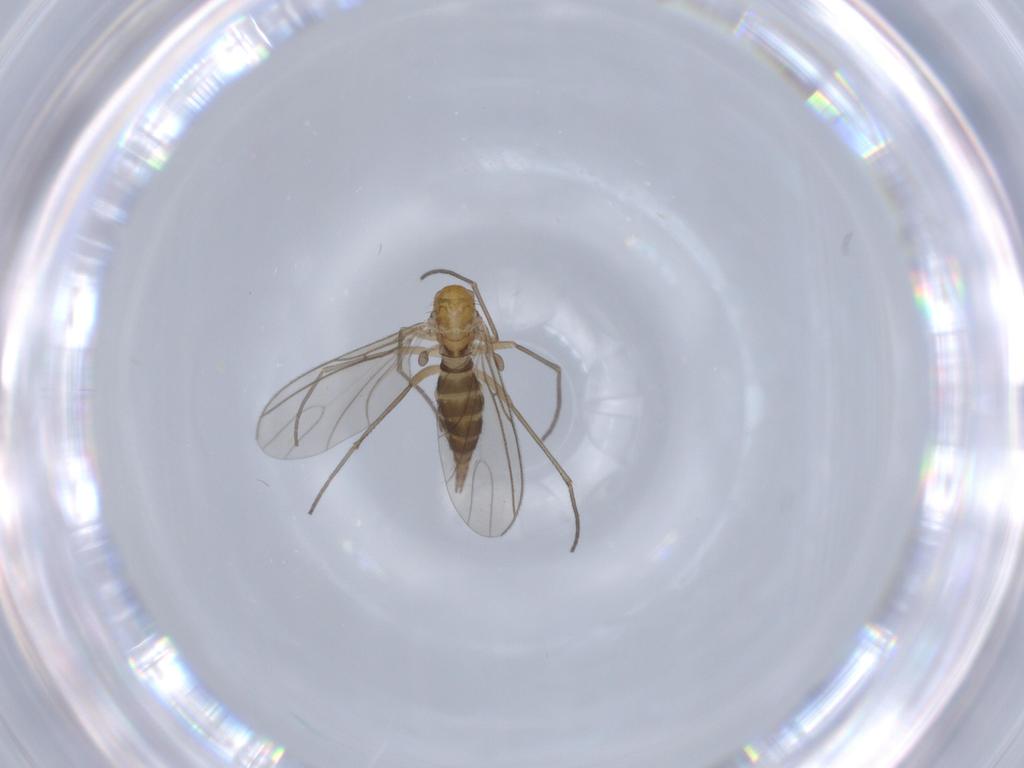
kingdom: Animalia
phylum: Arthropoda
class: Insecta
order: Diptera
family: Sciaridae
